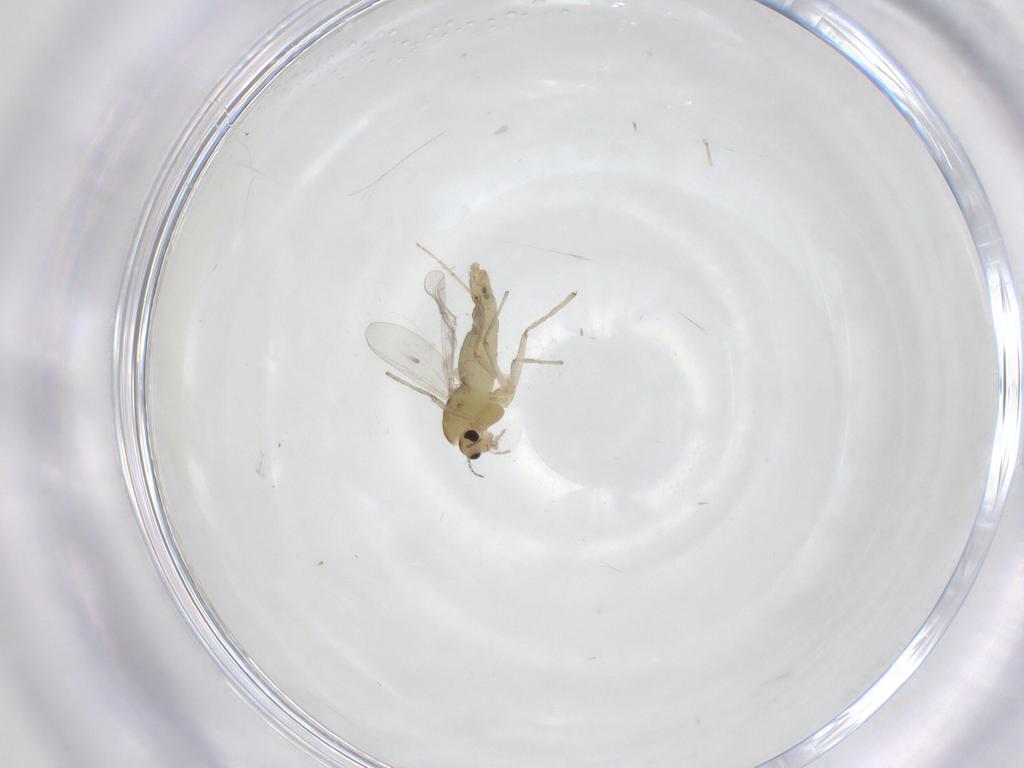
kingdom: Animalia
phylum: Arthropoda
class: Insecta
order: Diptera
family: Chironomidae
